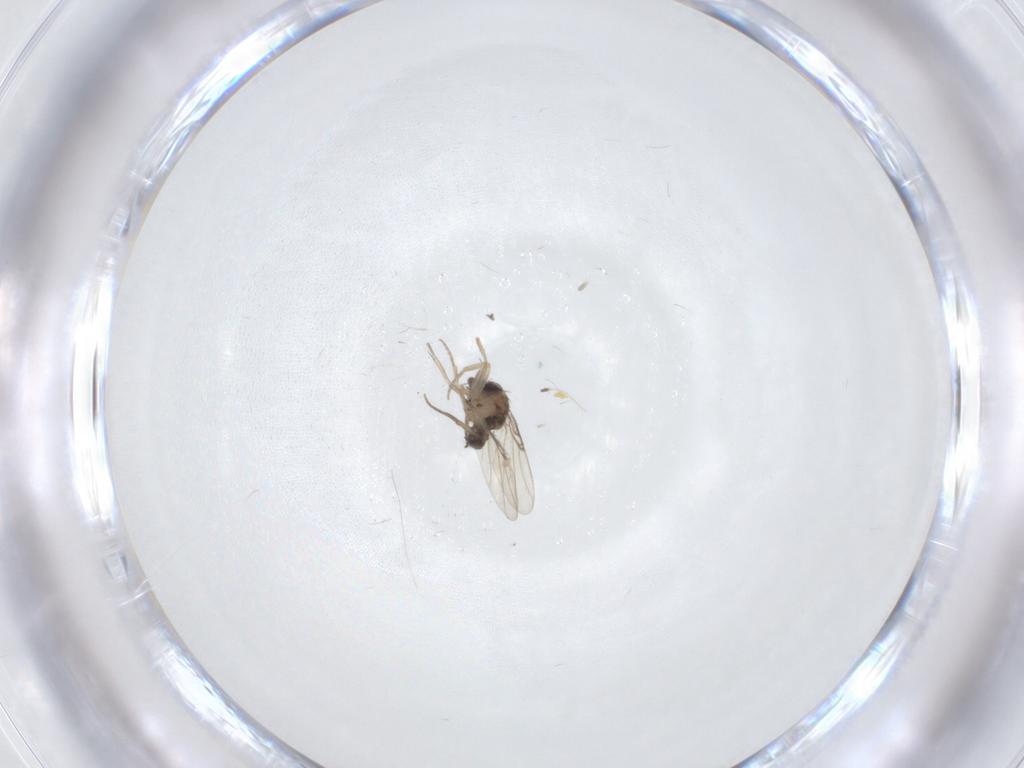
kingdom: Animalia
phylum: Arthropoda
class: Insecta
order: Diptera
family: Phoridae
